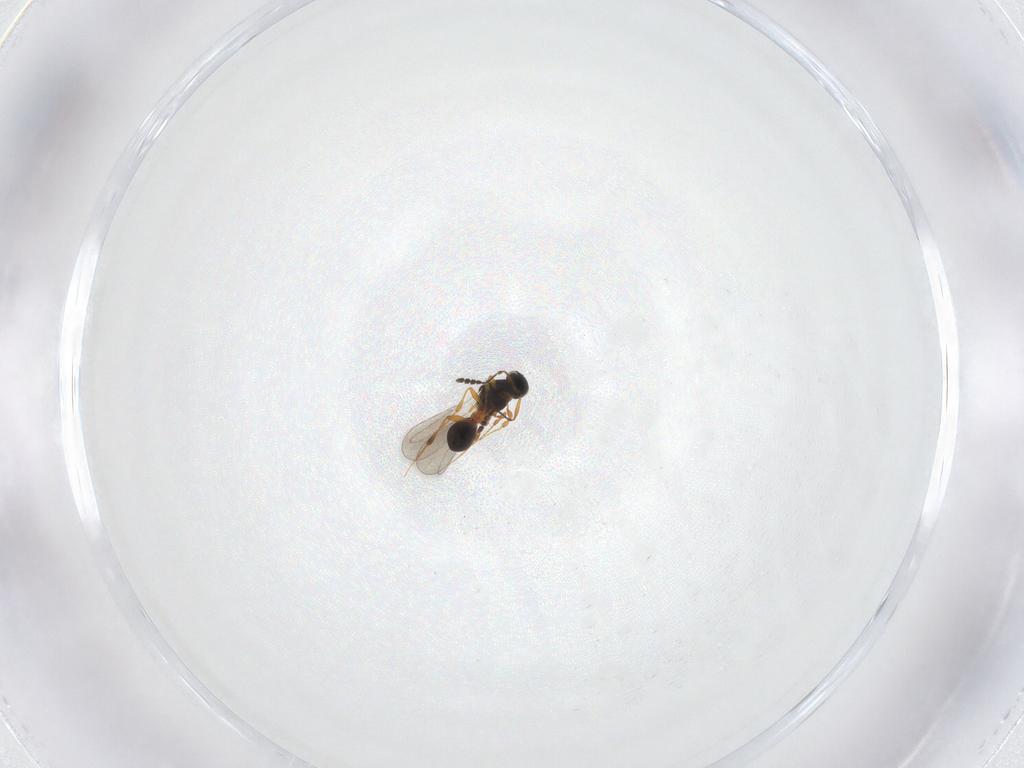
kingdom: Animalia
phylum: Arthropoda
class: Insecta
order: Hymenoptera
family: Platygastridae
